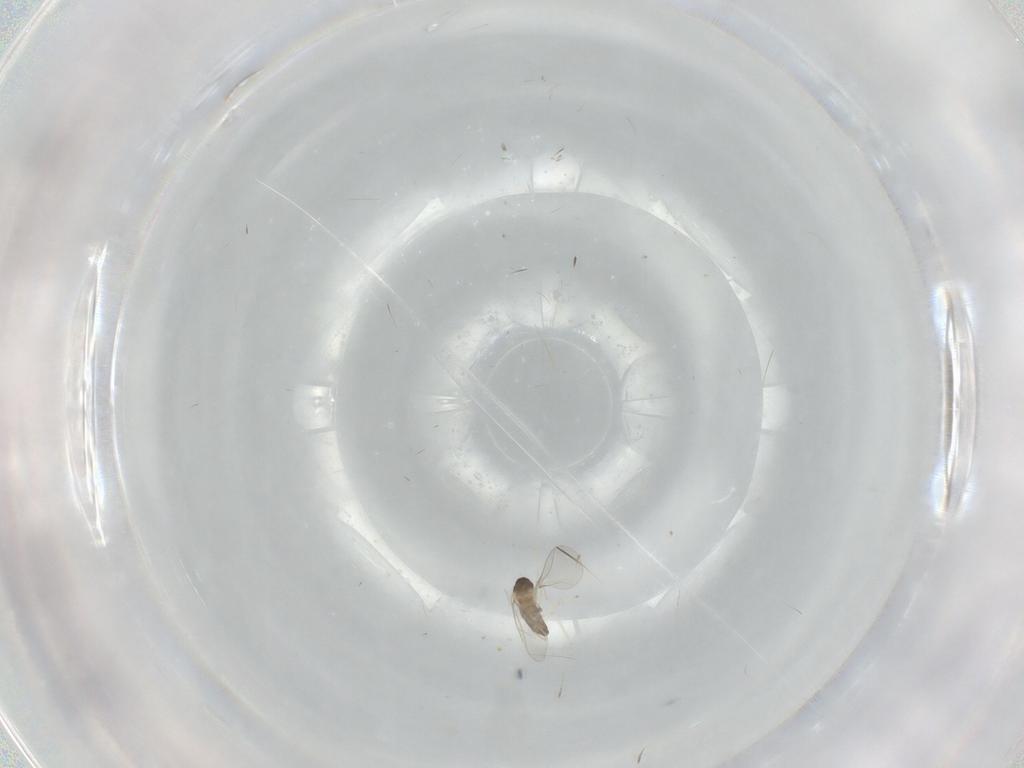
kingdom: Animalia
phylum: Arthropoda
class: Insecta
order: Diptera
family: Cecidomyiidae
